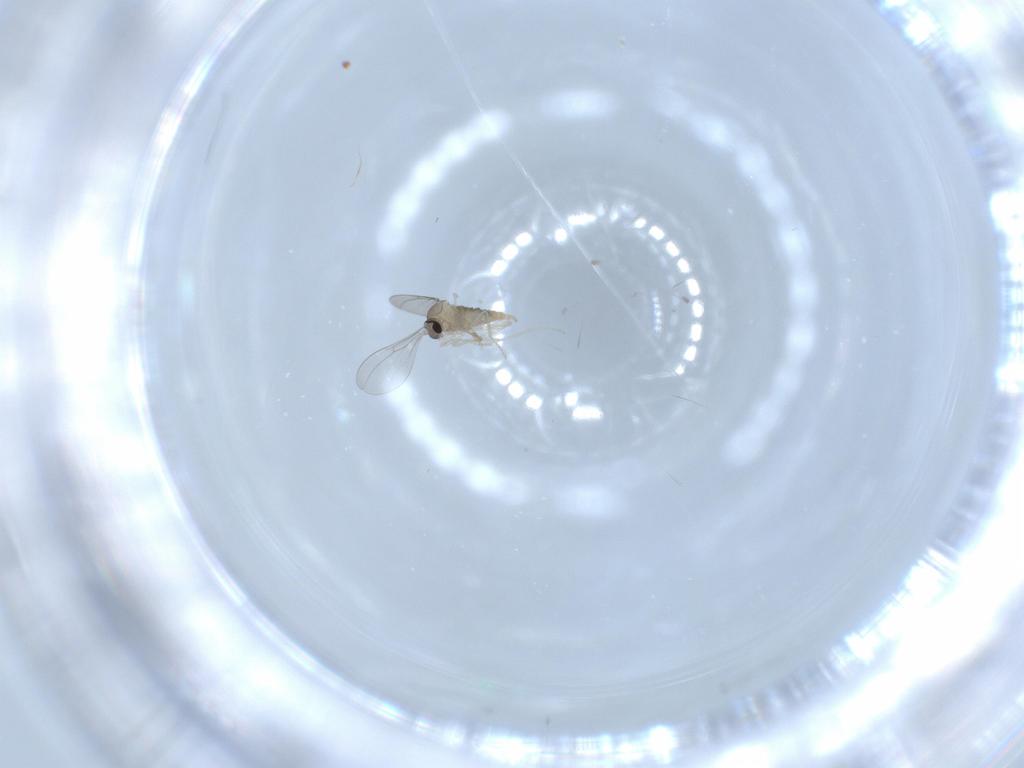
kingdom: Animalia
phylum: Arthropoda
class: Insecta
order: Diptera
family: Cecidomyiidae
